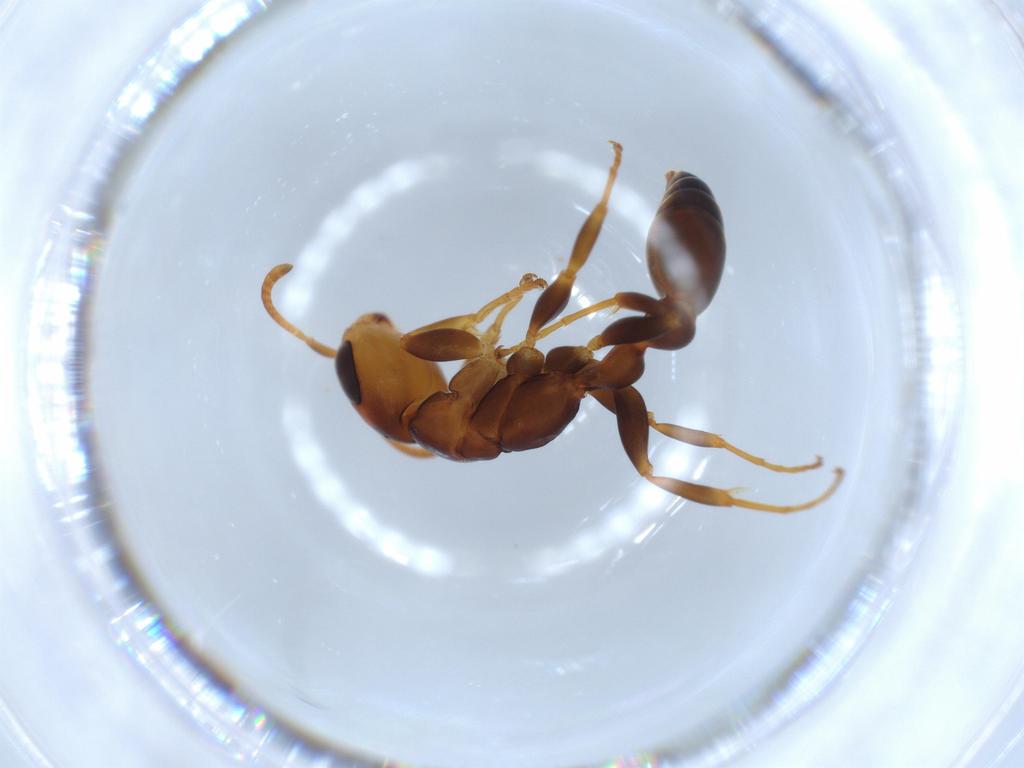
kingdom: Animalia
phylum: Arthropoda
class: Insecta
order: Hymenoptera
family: Formicidae
